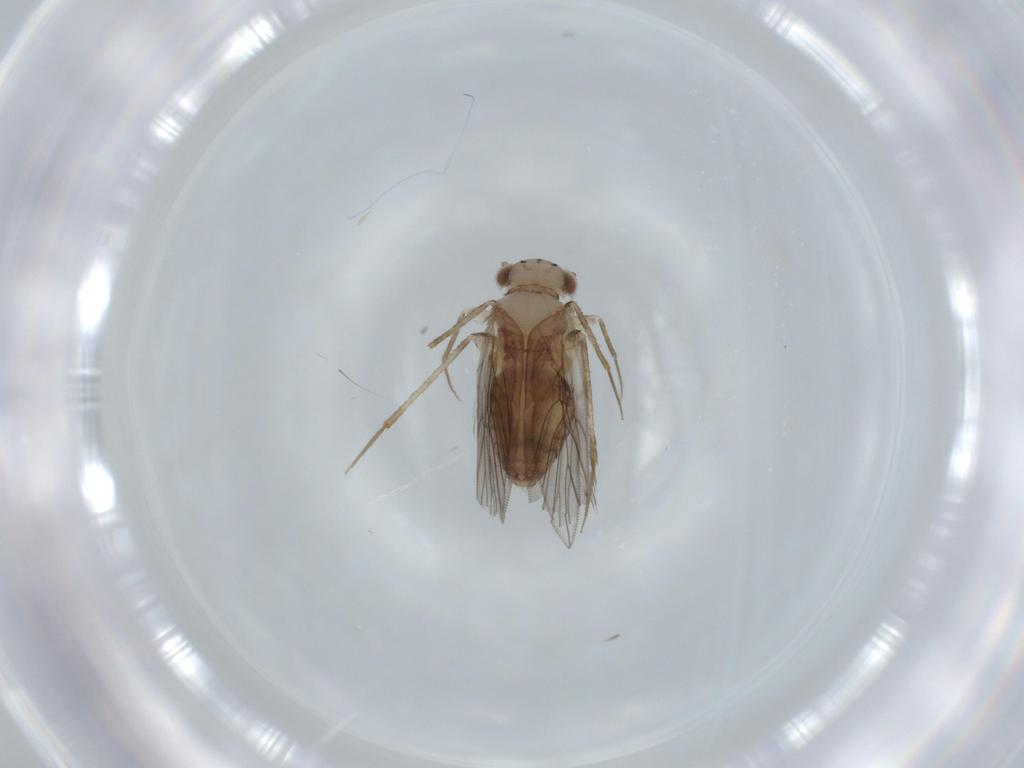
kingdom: Animalia
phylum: Arthropoda
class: Insecta
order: Psocodea
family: Lepidopsocidae
